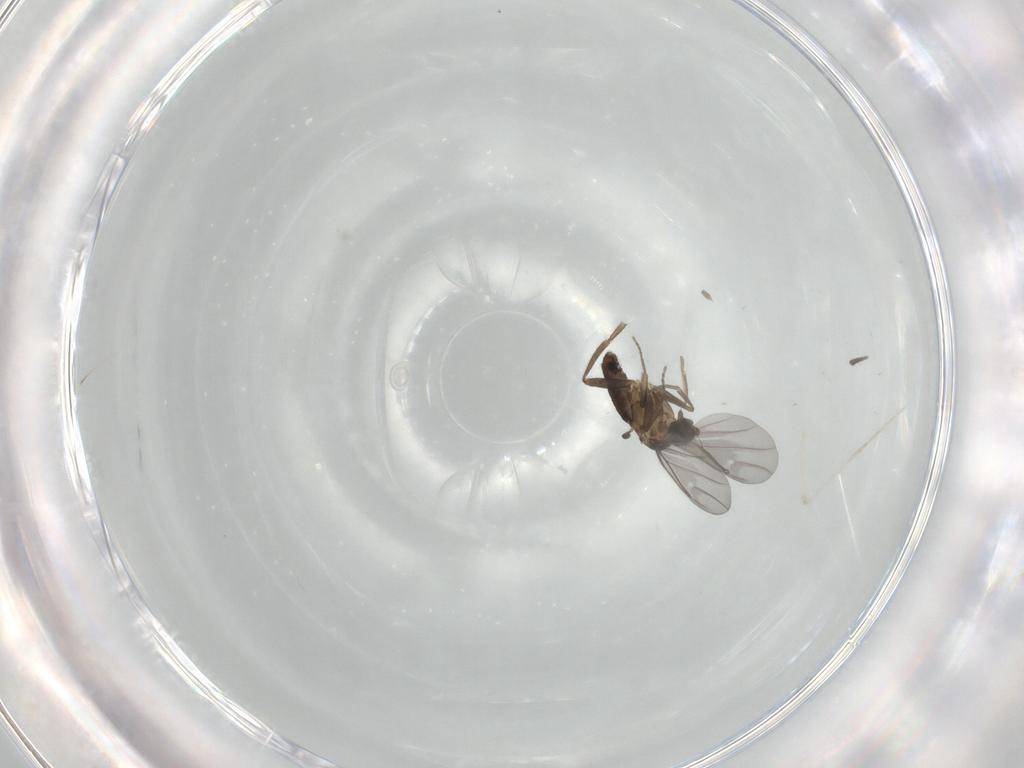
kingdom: Animalia
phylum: Arthropoda
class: Insecta
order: Diptera
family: Cecidomyiidae
